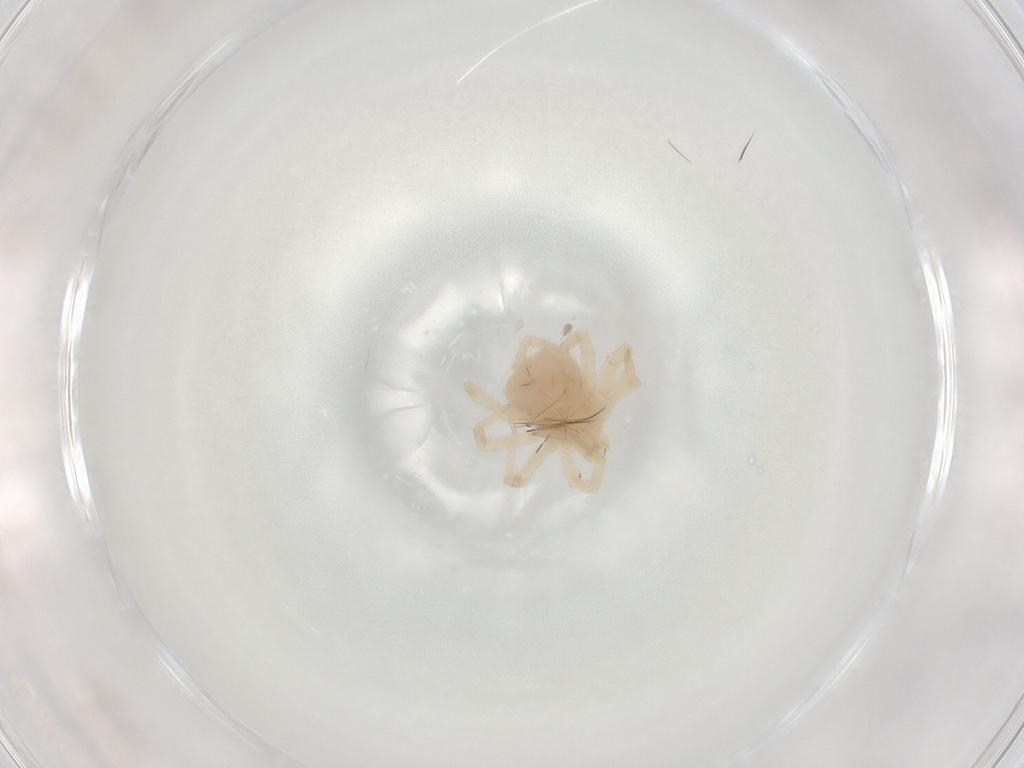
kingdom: Animalia
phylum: Arthropoda
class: Arachnida
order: Trombidiformes
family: Anystidae
